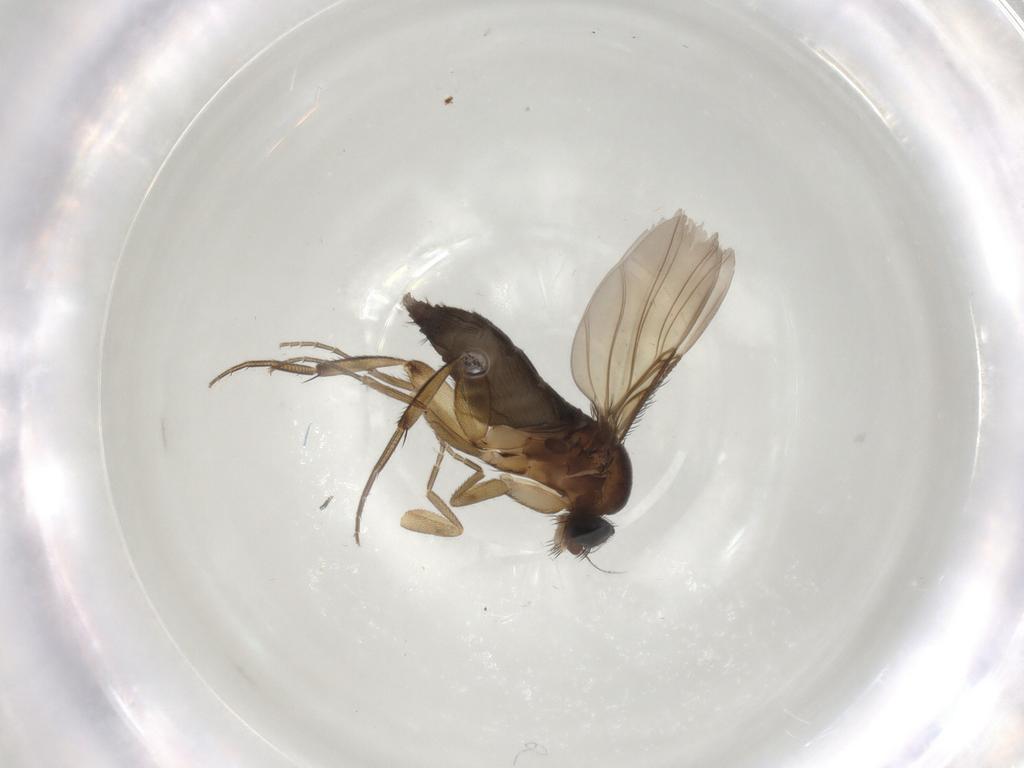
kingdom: Animalia
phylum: Arthropoda
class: Insecta
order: Diptera
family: Phoridae
